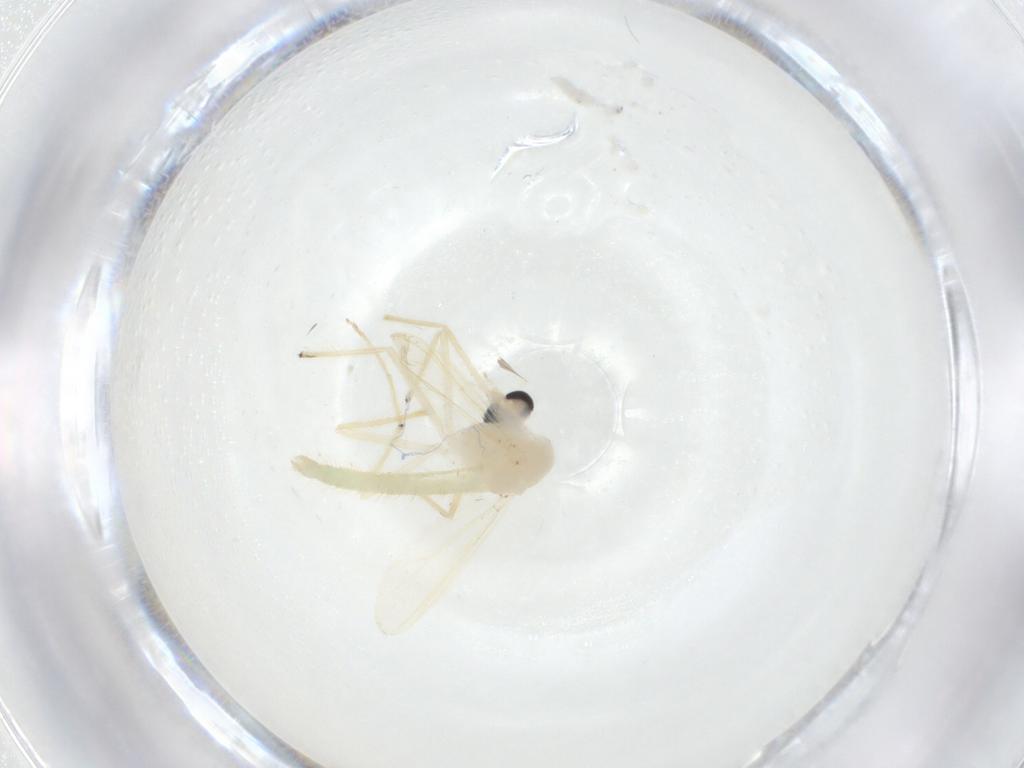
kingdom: Animalia
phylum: Arthropoda
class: Insecta
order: Diptera
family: Chironomidae
